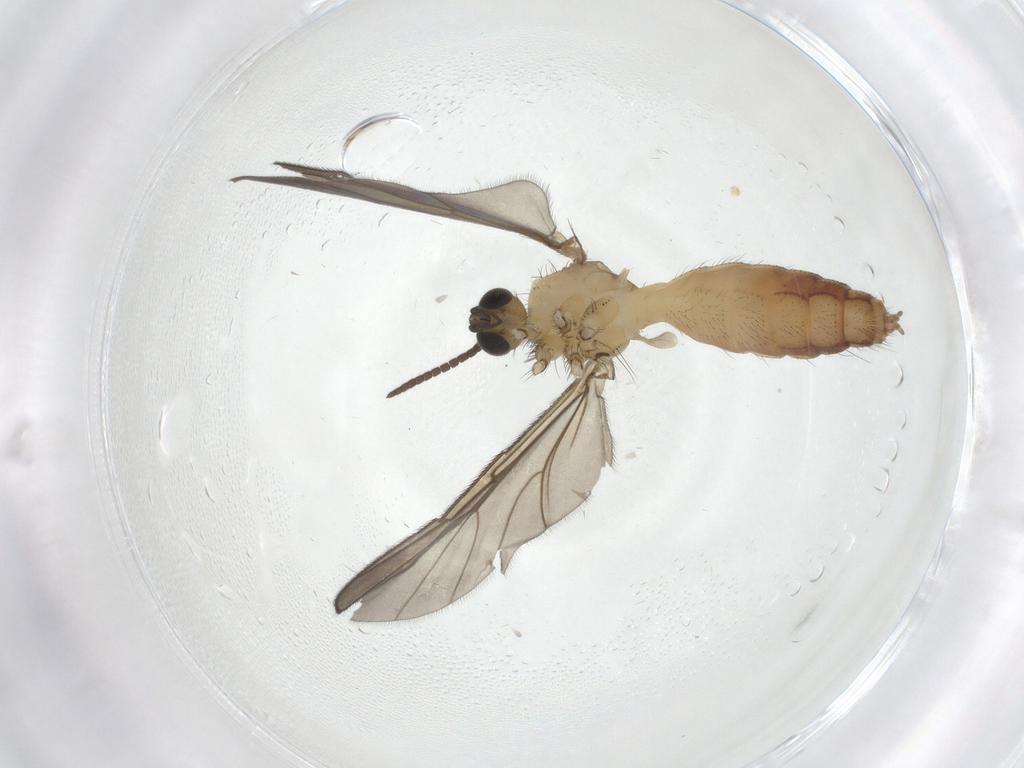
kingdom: Animalia
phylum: Arthropoda
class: Insecta
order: Diptera
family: Mycetophilidae
